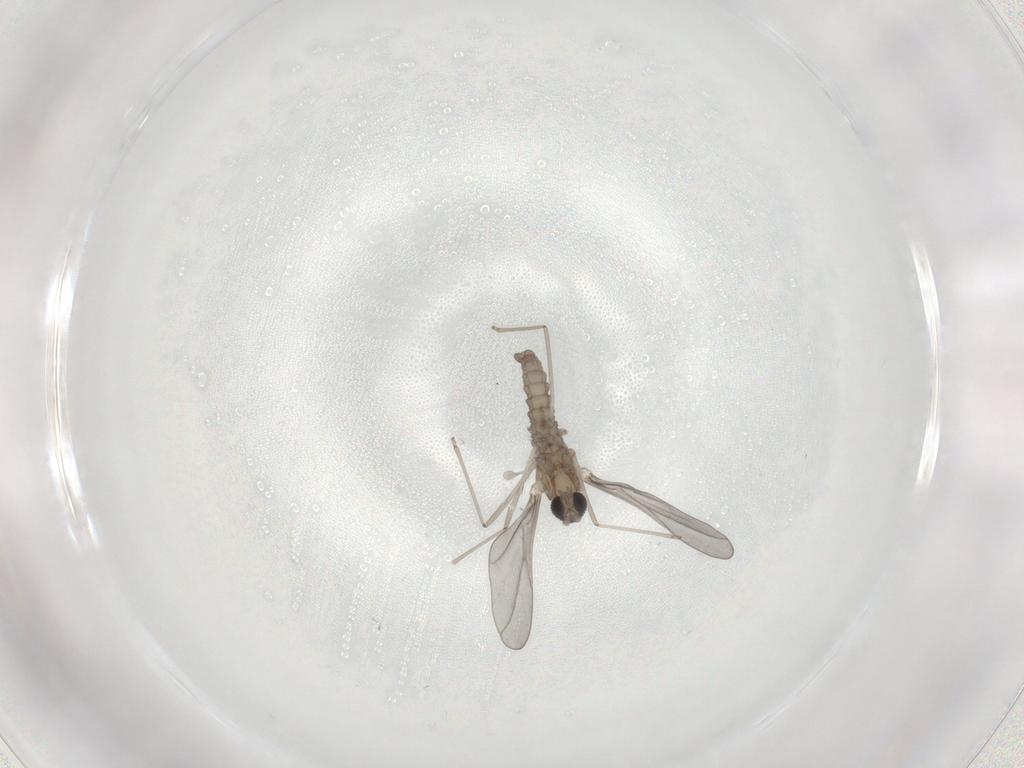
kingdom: Animalia
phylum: Arthropoda
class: Insecta
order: Diptera
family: Cecidomyiidae
